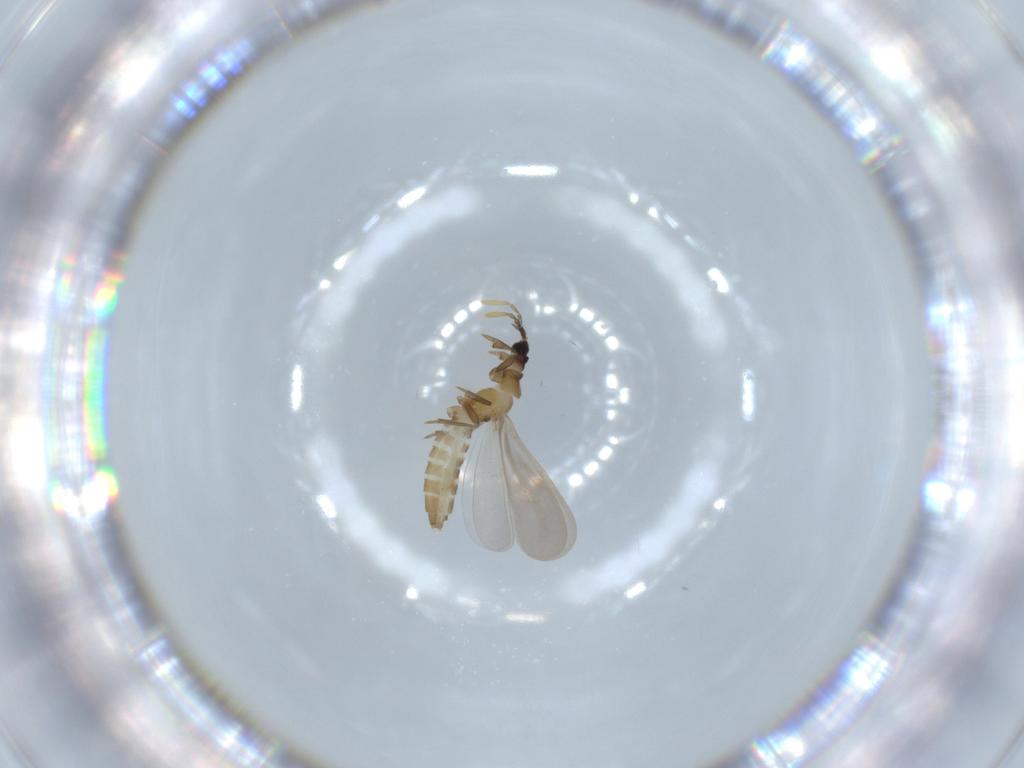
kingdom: Animalia
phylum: Arthropoda
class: Insecta
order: Hemiptera
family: Enicocephalidae
